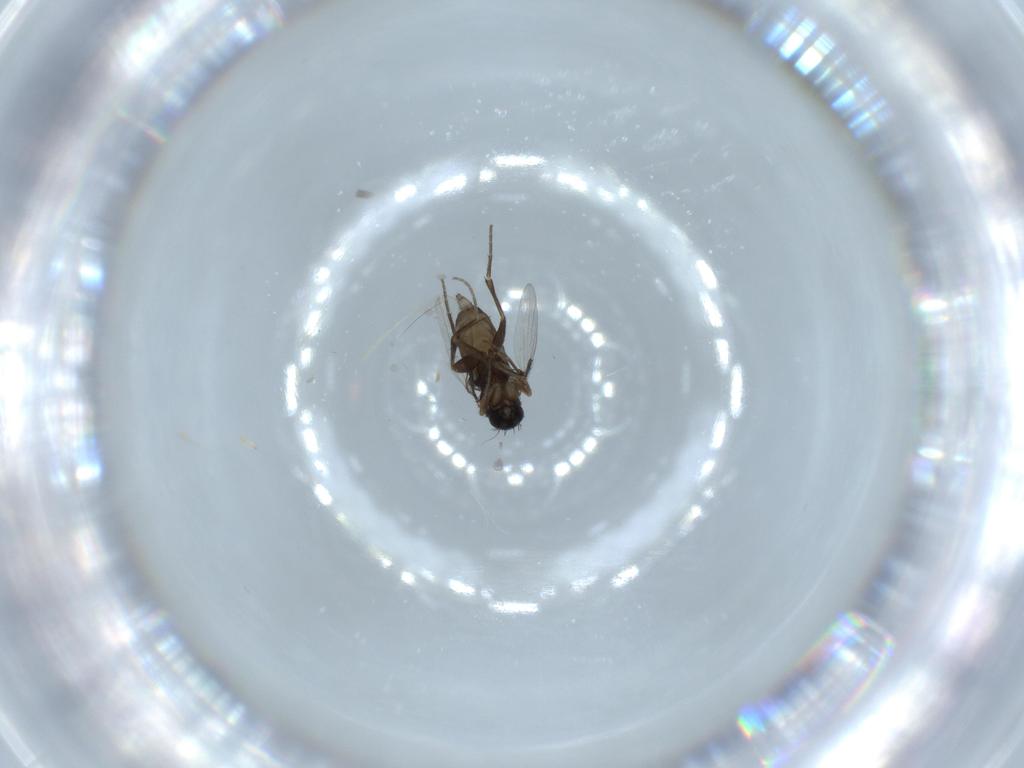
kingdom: Animalia
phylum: Arthropoda
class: Insecta
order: Diptera
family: Phoridae
